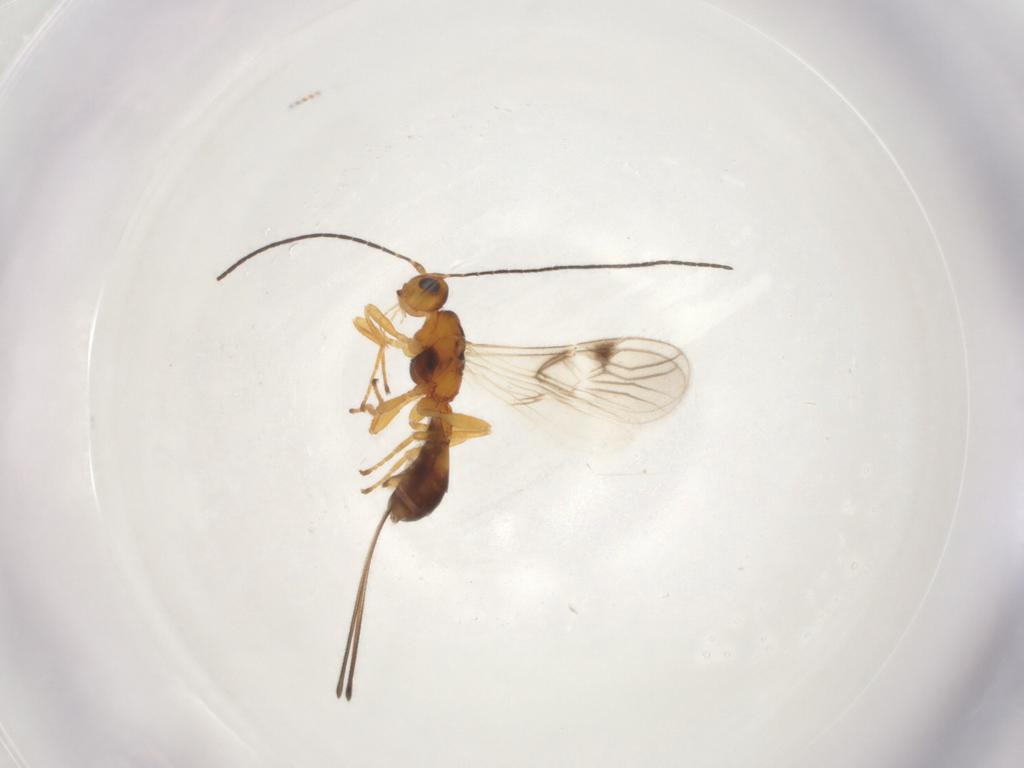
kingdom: Animalia
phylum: Arthropoda
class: Insecta
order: Hymenoptera
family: Braconidae
